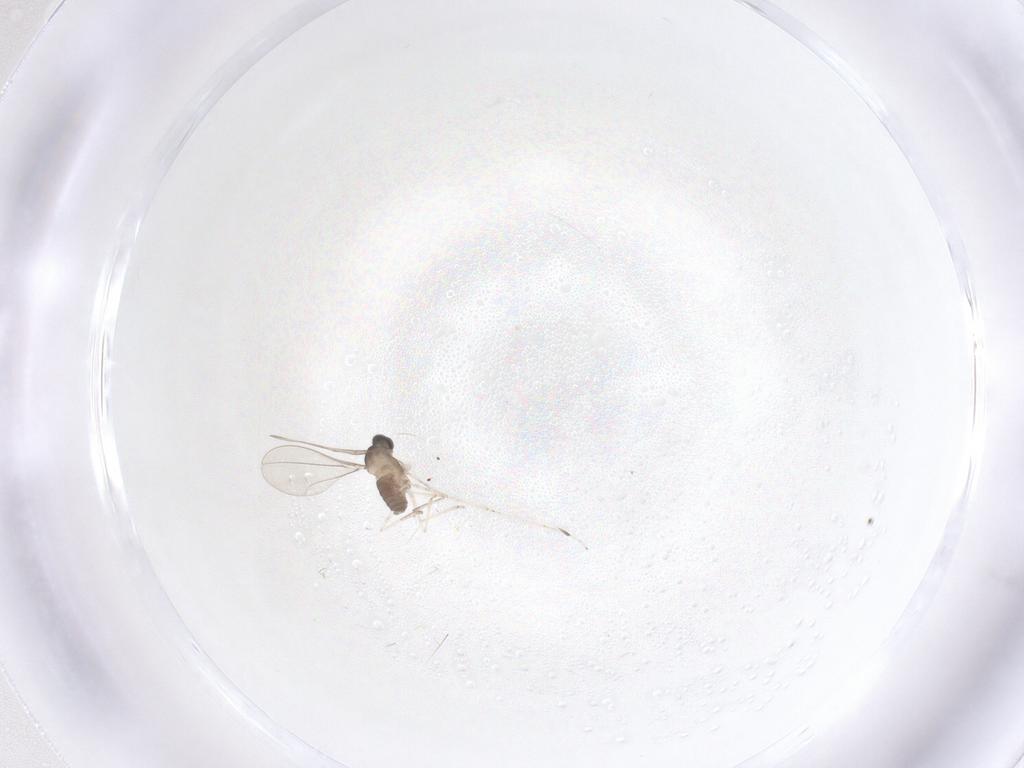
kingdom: Animalia
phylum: Arthropoda
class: Insecta
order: Diptera
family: Cecidomyiidae
